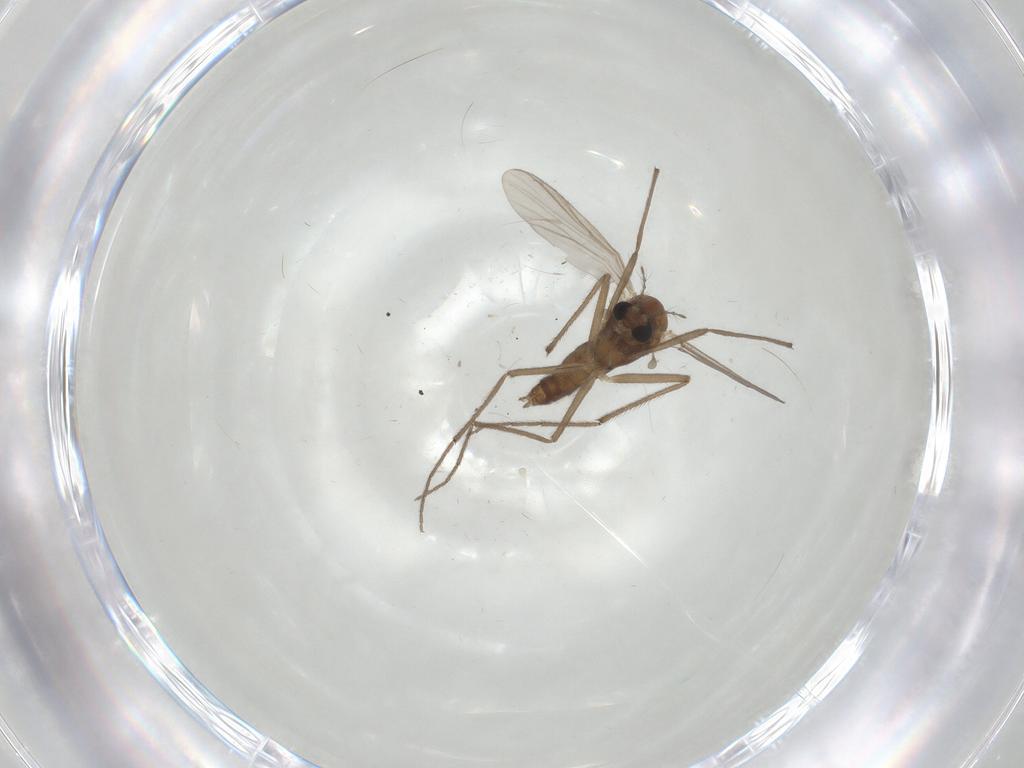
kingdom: Animalia
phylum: Arthropoda
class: Insecta
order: Diptera
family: Chironomidae
